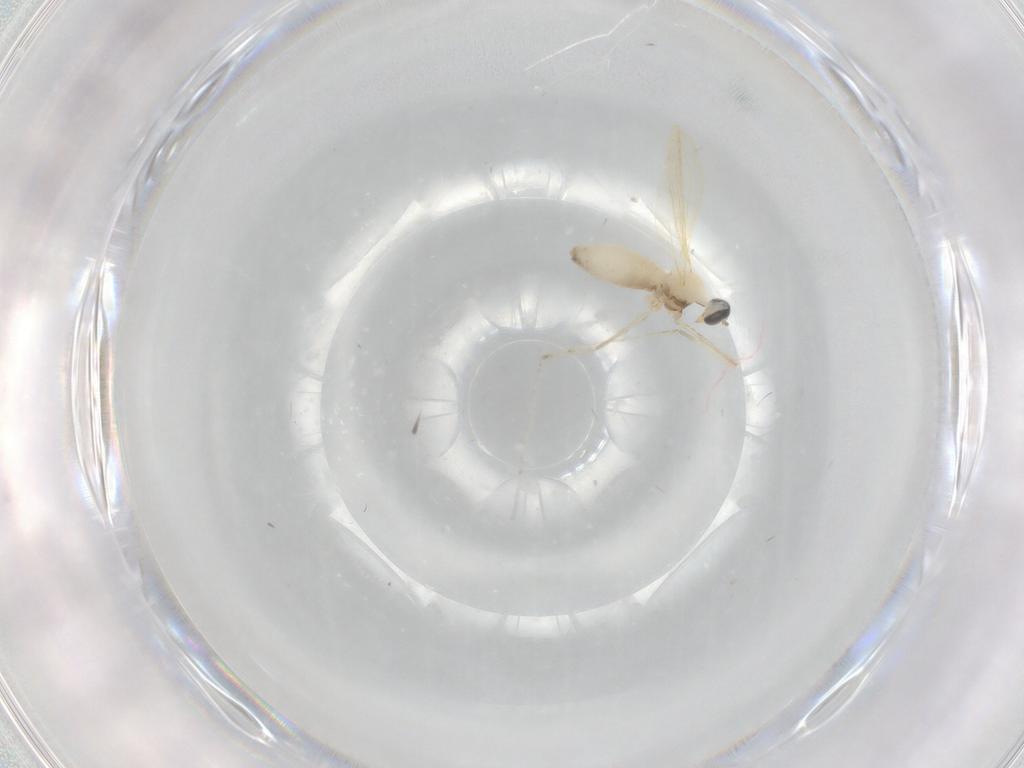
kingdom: Animalia
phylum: Arthropoda
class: Insecta
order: Diptera
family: Cecidomyiidae
